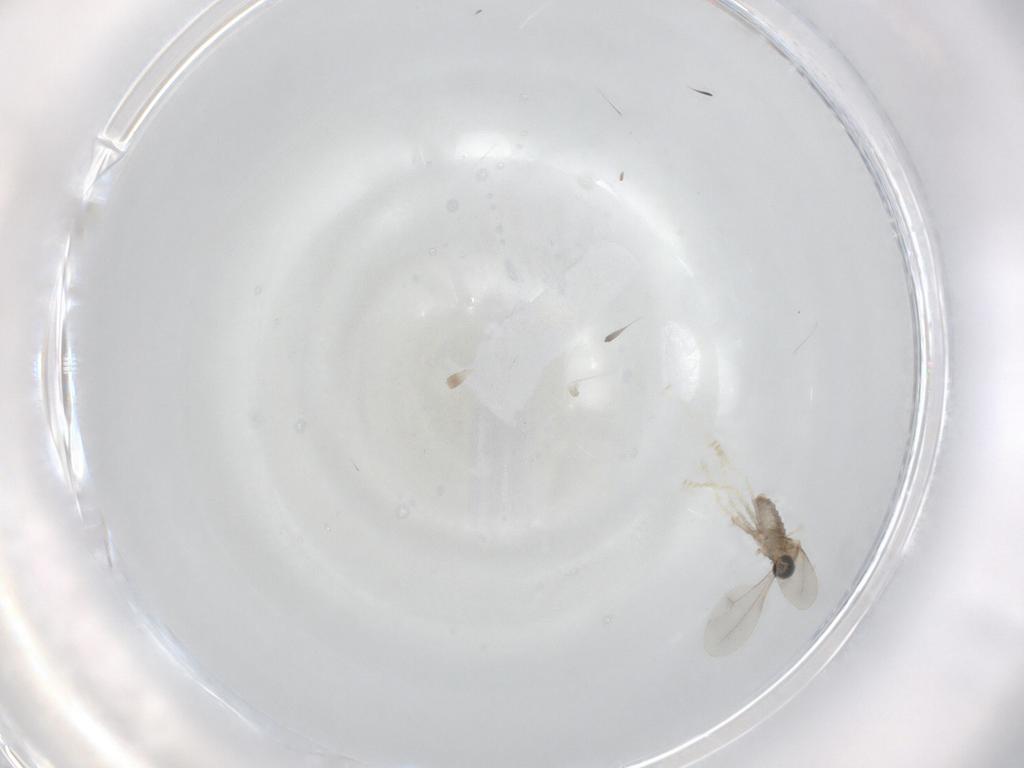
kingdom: Animalia
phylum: Arthropoda
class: Insecta
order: Diptera
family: Cecidomyiidae
